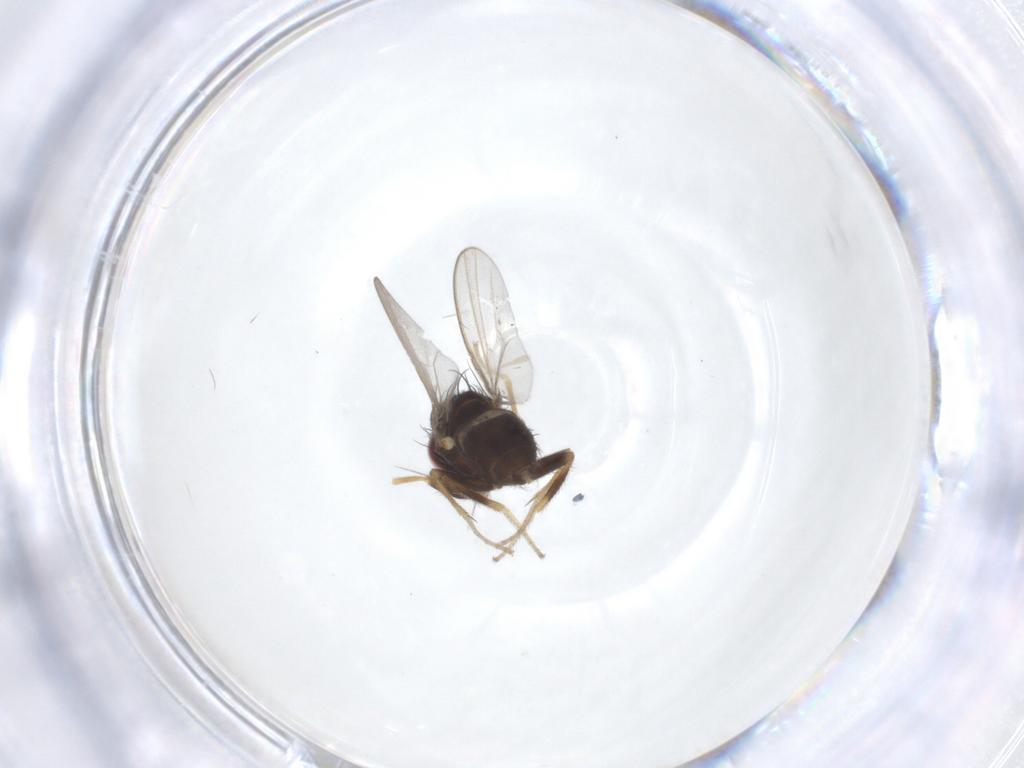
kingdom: Animalia
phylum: Arthropoda
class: Insecta
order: Diptera
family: Milichiidae
